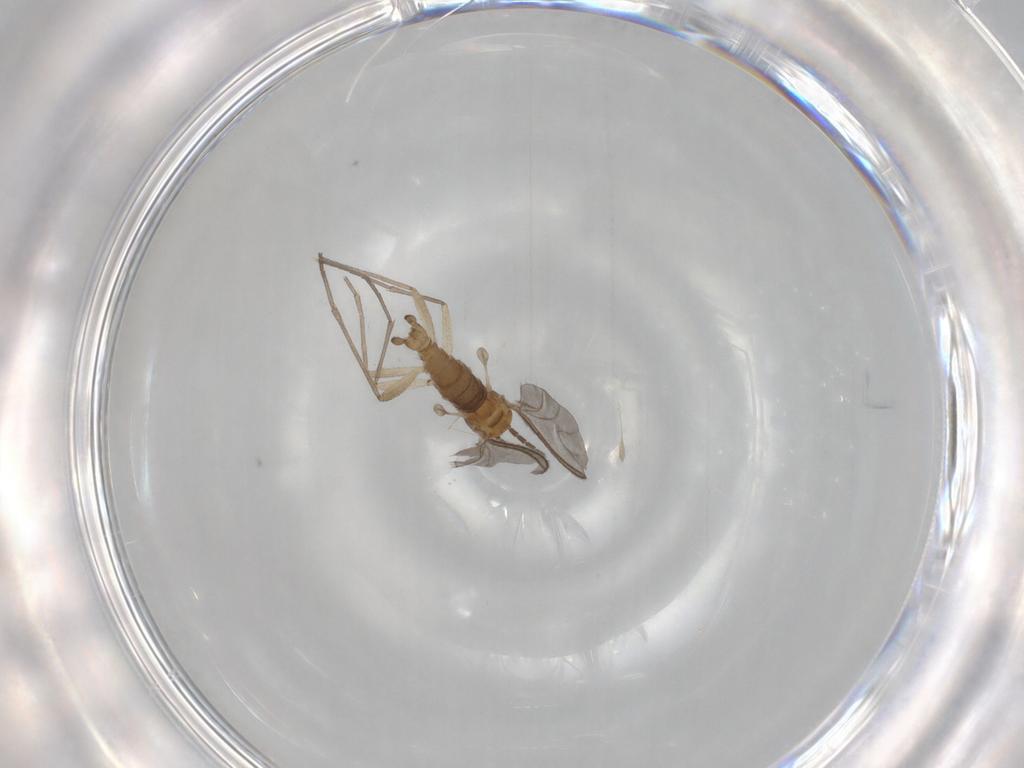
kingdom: Animalia
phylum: Arthropoda
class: Insecta
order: Diptera
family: Sciaridae
